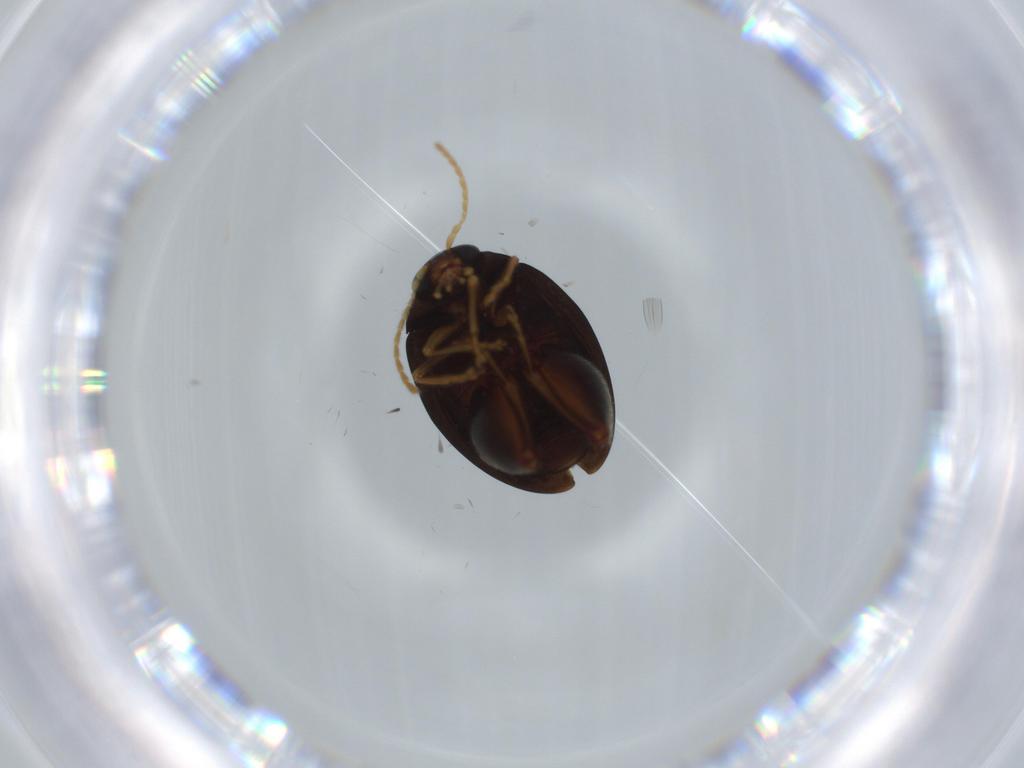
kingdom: Animalia
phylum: Arthropoda
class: Insecta
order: Coleoptera
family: Chrysomelidae
